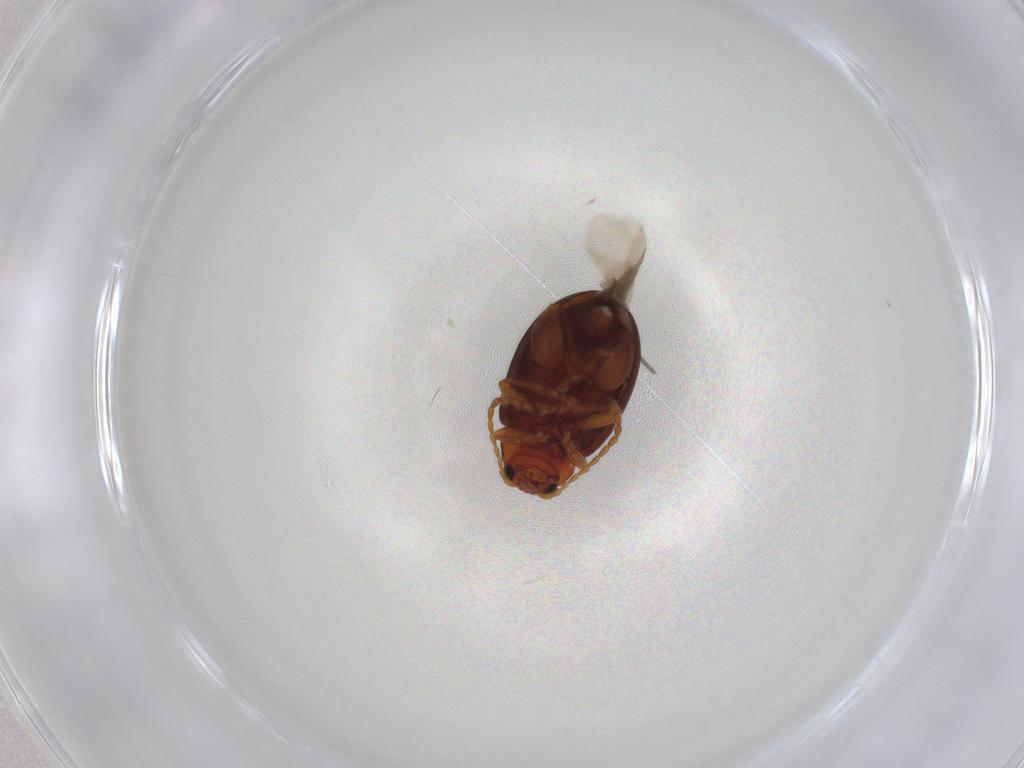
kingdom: Animalia
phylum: Arthropoda
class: Insecta
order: Coleoptera
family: Chrysomelidae
